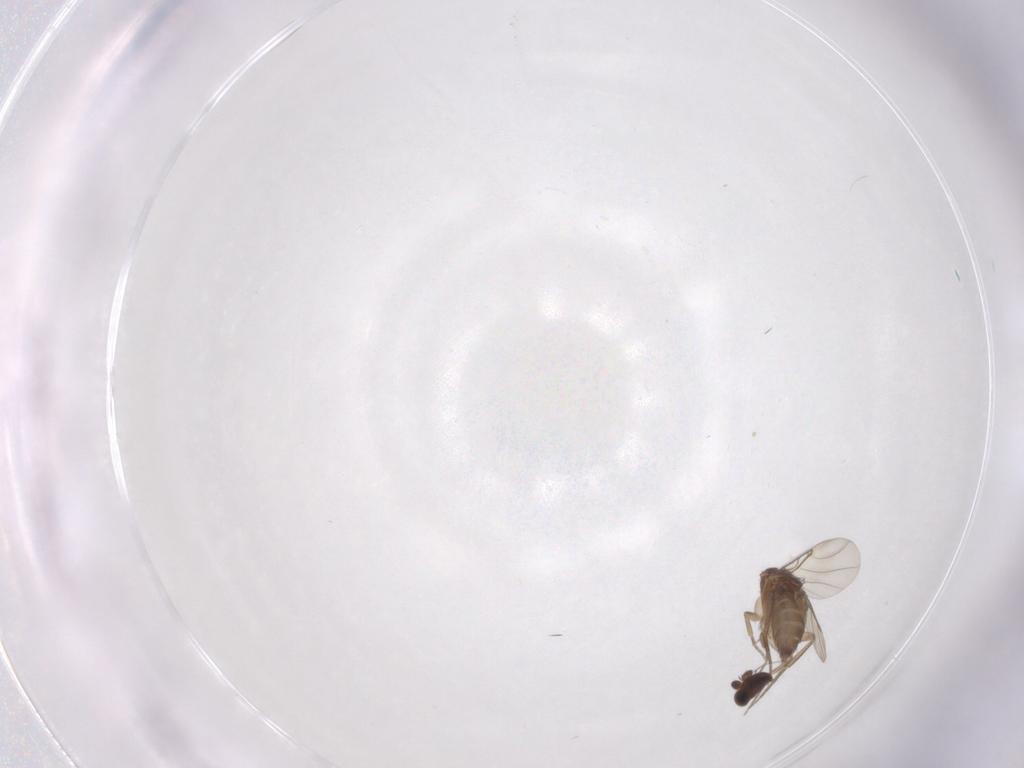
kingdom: Animalia
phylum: Arthropoda
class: Insecta
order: Diptera
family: Phoridae
